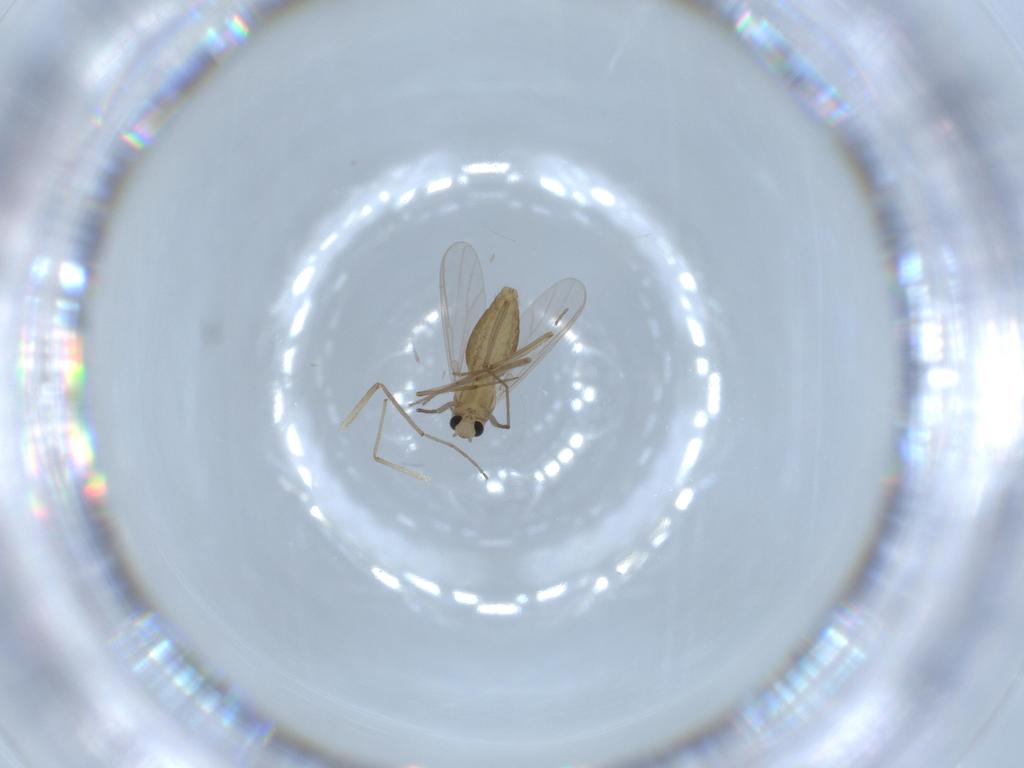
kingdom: Animalia
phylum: Arthropoda
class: Insecta
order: Diptera
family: Chironomidae
